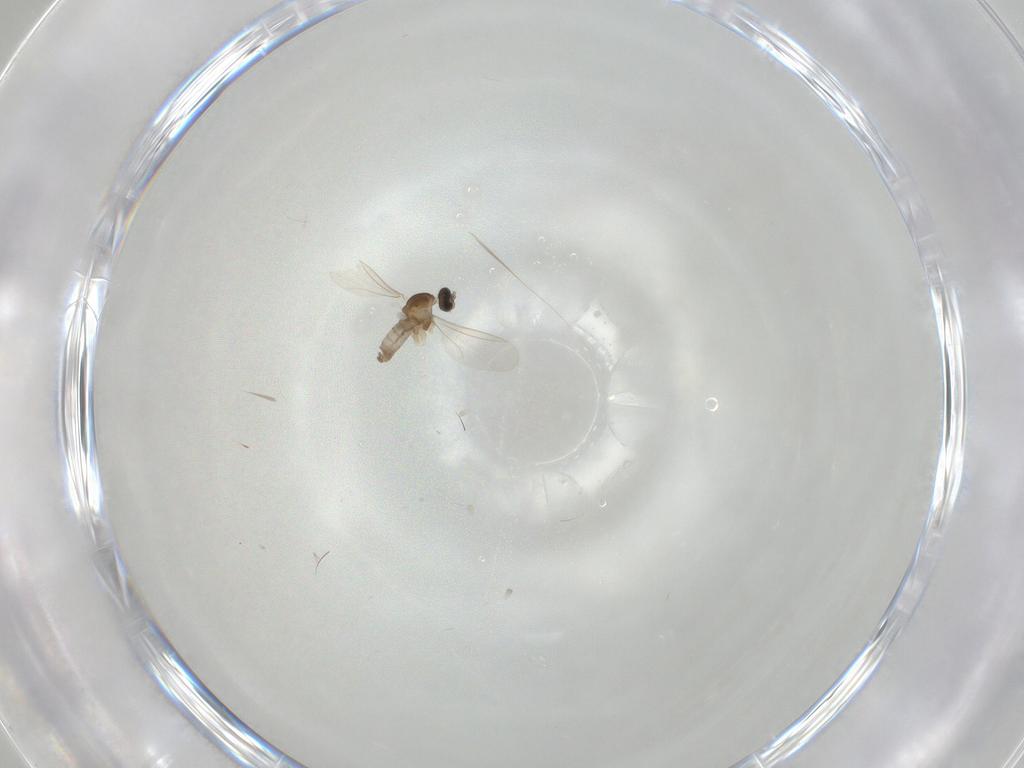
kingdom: Animalia
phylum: Arthropoda
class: Insecta
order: Diptera
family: Cecidomyiidae
